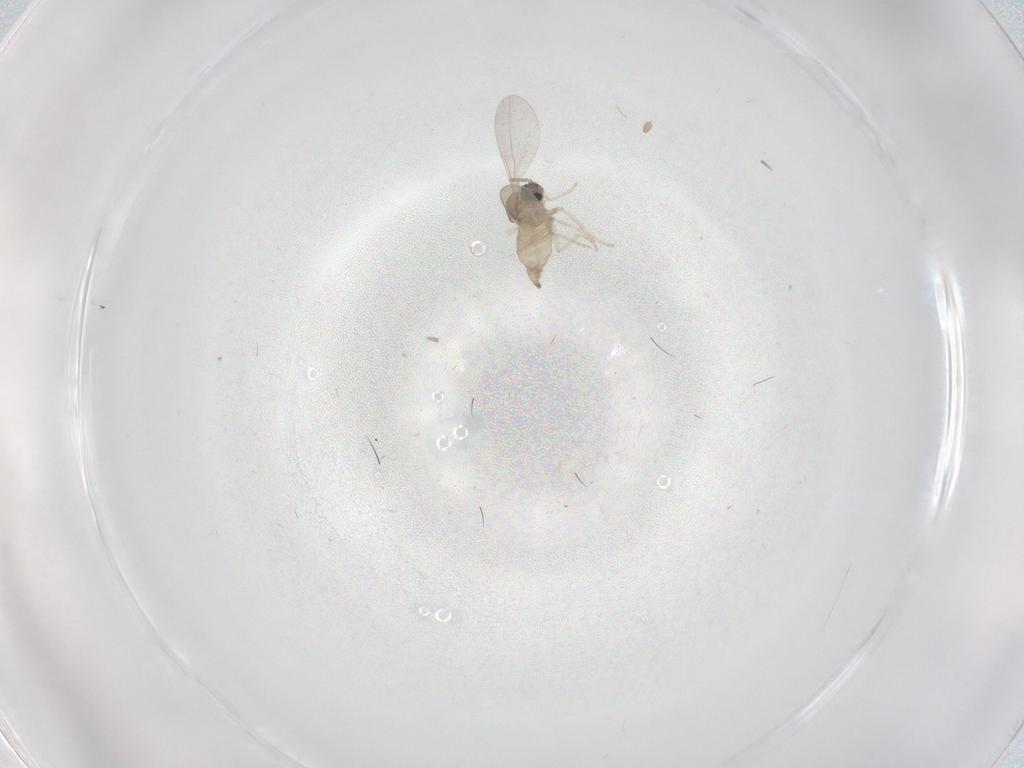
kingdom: Animalia
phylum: Arthropoda
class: Insecta
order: Diptera
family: Cecidomyiidae
